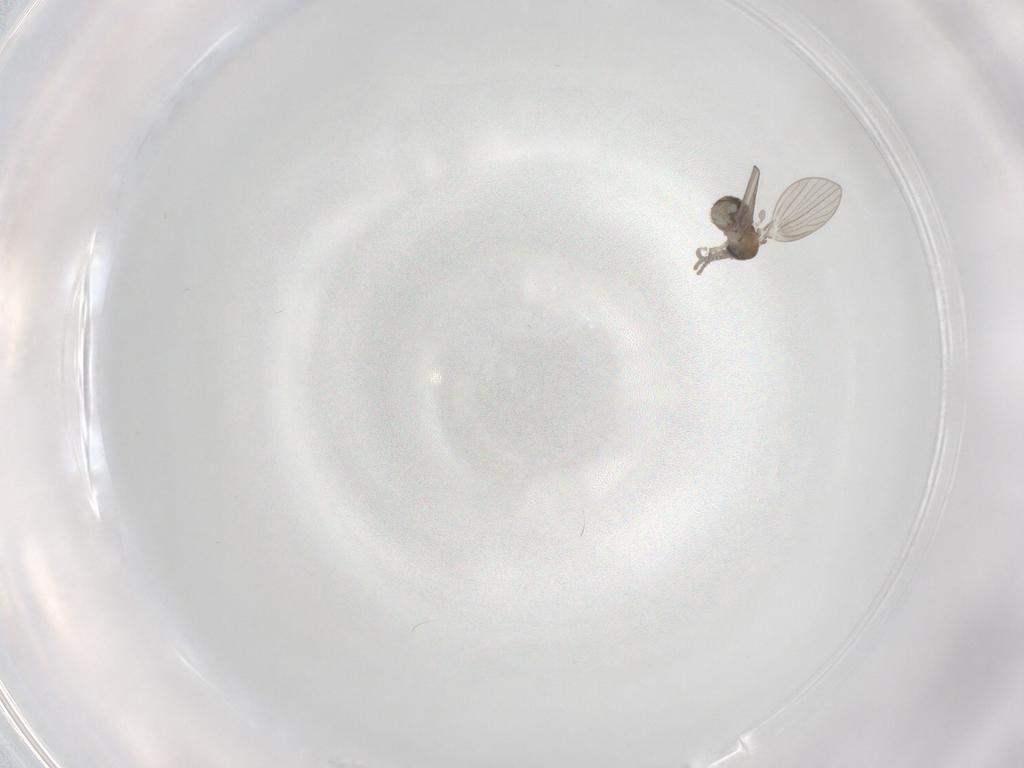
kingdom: Animalia
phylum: Arthropoda
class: Insecta
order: Diptera
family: Psychodidae
